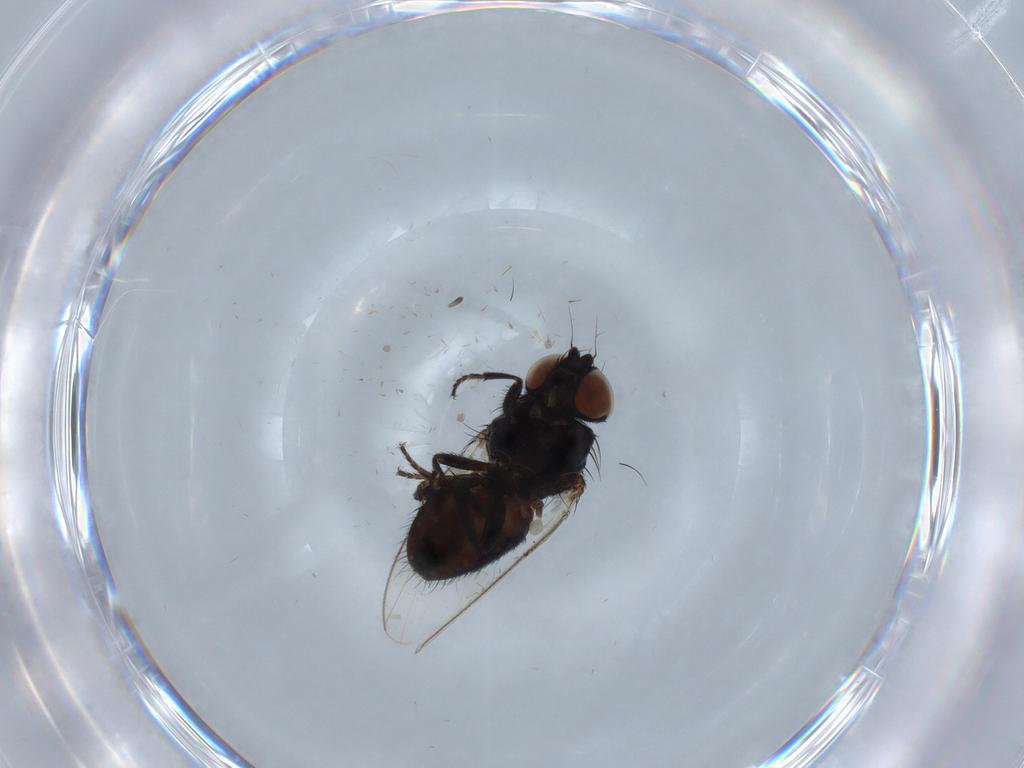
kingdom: Animalia
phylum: Arthropoda
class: Insecta
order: Diptera
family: Milichiidae
